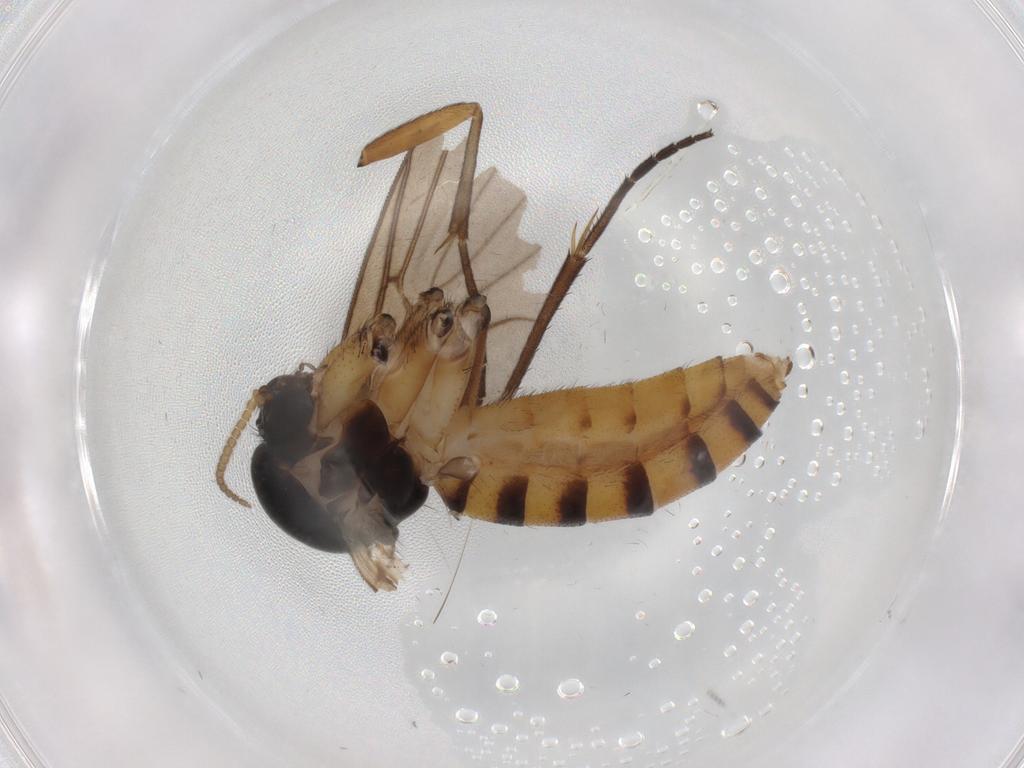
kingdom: Animalia
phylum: Arthropoda
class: Insecta
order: Diptera
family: Mycetophilidae
